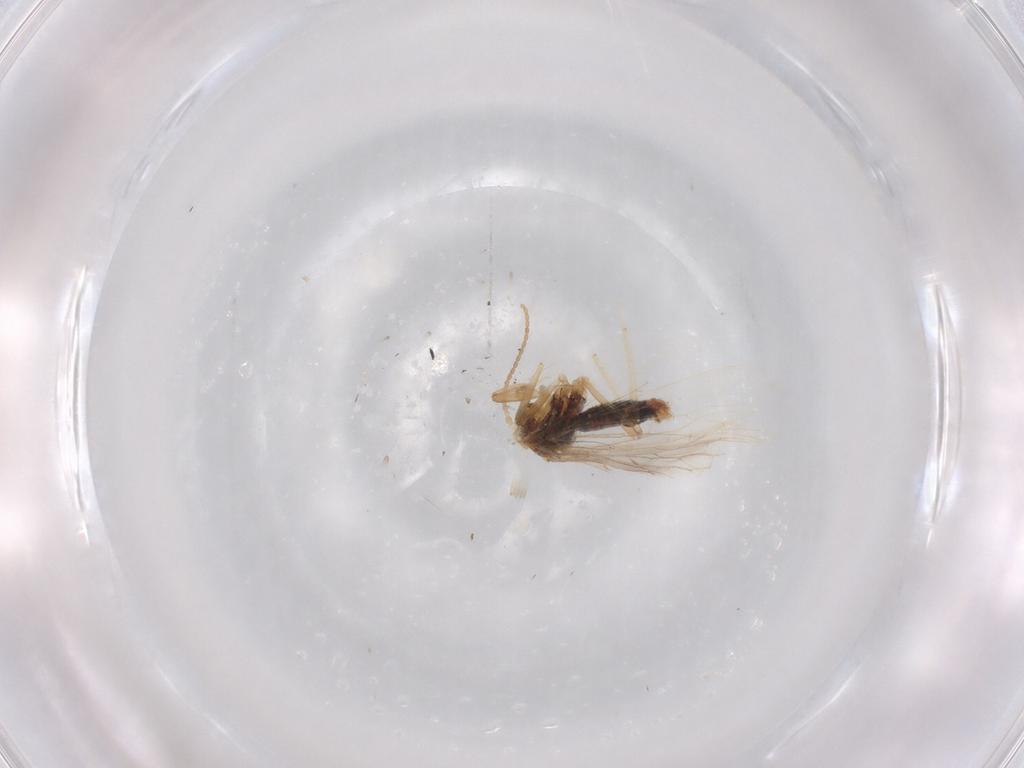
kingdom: Animalia
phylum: Arthropoda
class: Insecta
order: Neuroptera
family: Coniopterygidae
